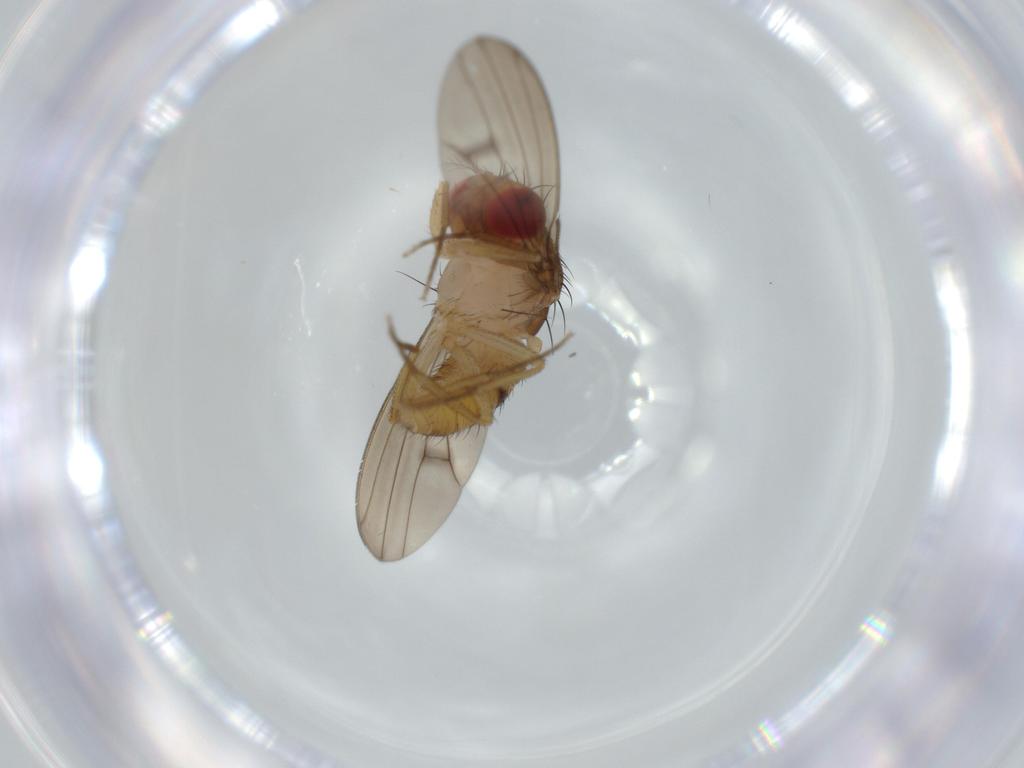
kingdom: Animalia
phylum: Arthropoda
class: Insecta
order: Diptera
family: Drosophilidae
